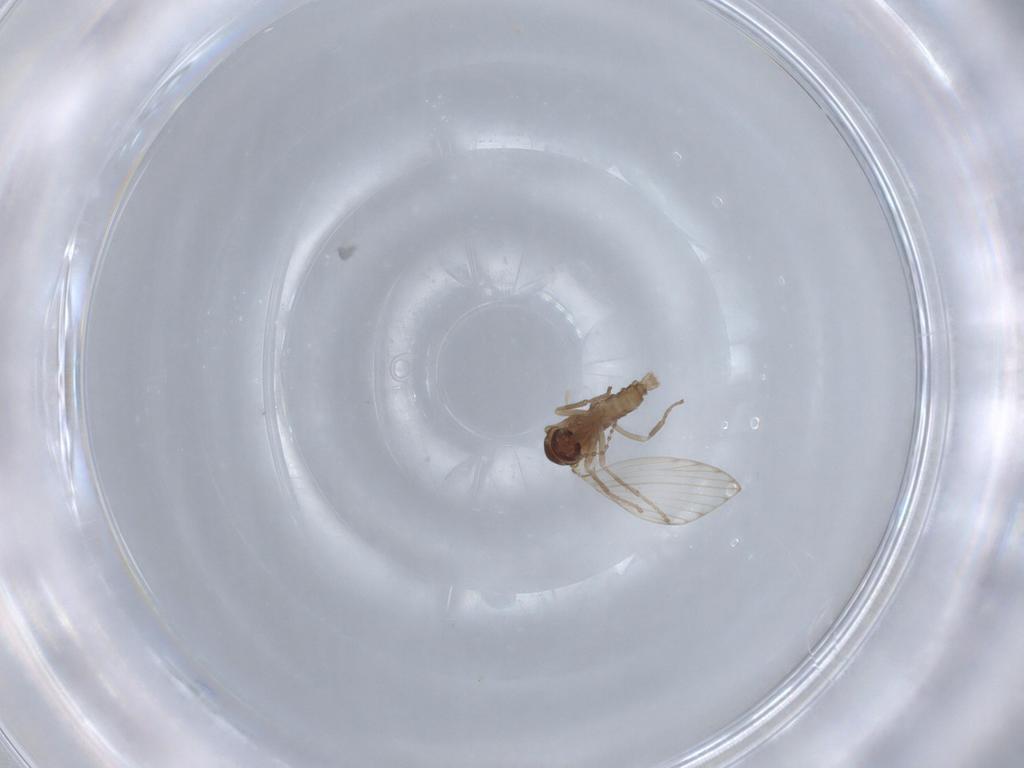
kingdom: Animalia
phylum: Arthropoda
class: Insecta
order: Diptera
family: Psychodidae
